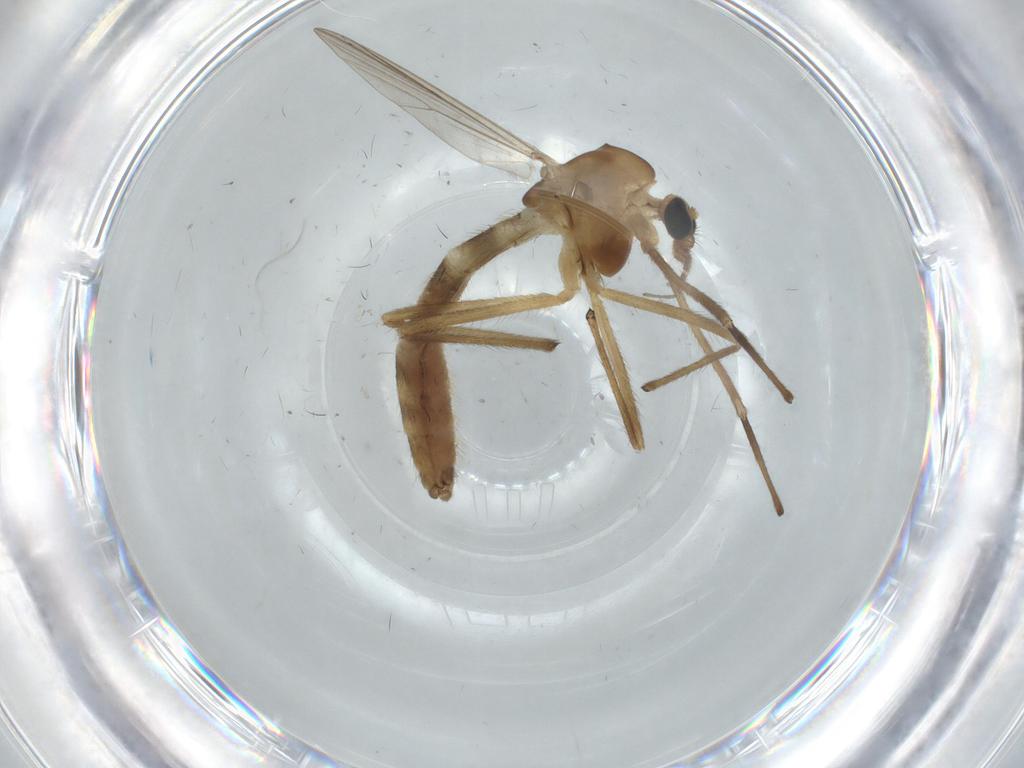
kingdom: Animalia
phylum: Arthropoda
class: Insecta
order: Diptera
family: Chironomidae
